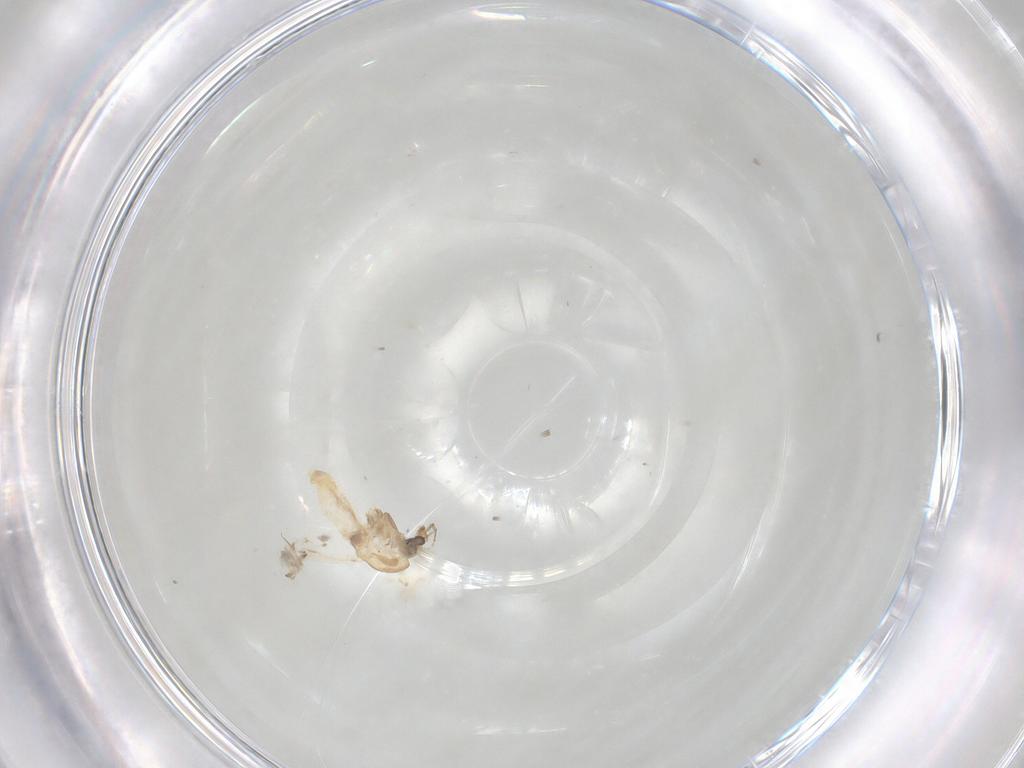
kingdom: Animalia
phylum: Arthropoda
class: Insecta
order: Diptera
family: Chironomidae
